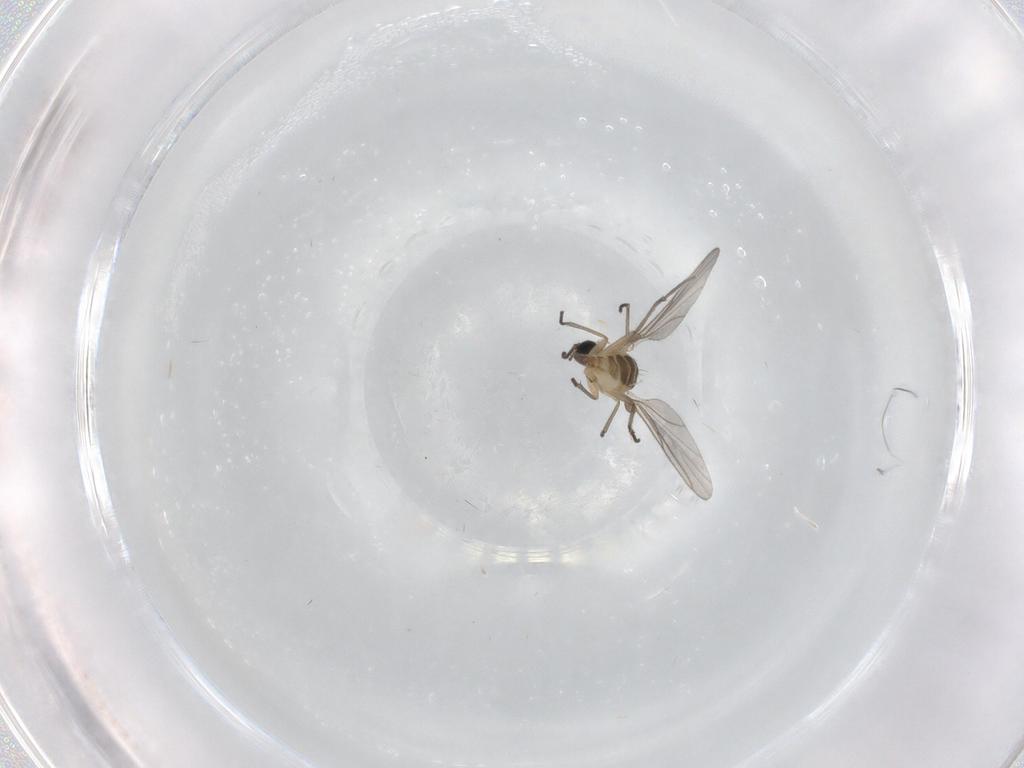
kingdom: Animalia
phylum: Arthropoda
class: Insecta
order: Diptera
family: Sciaridae
